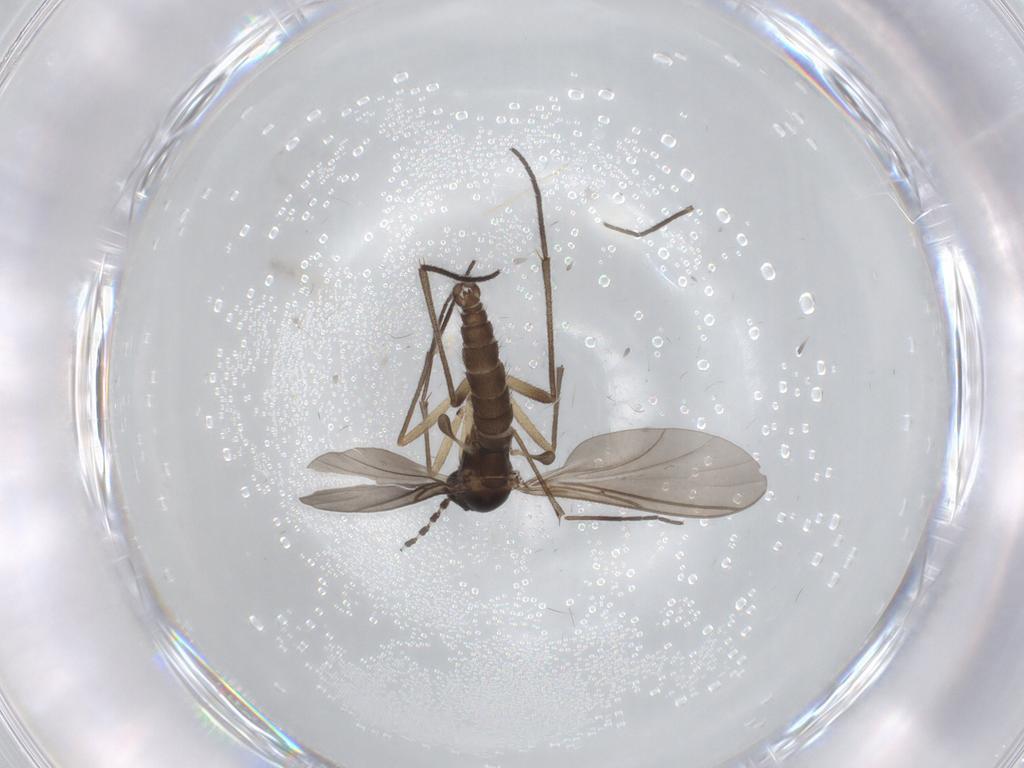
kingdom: Animalia
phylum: Arthropoda
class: Insecta
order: Diptera
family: Sciaridae
